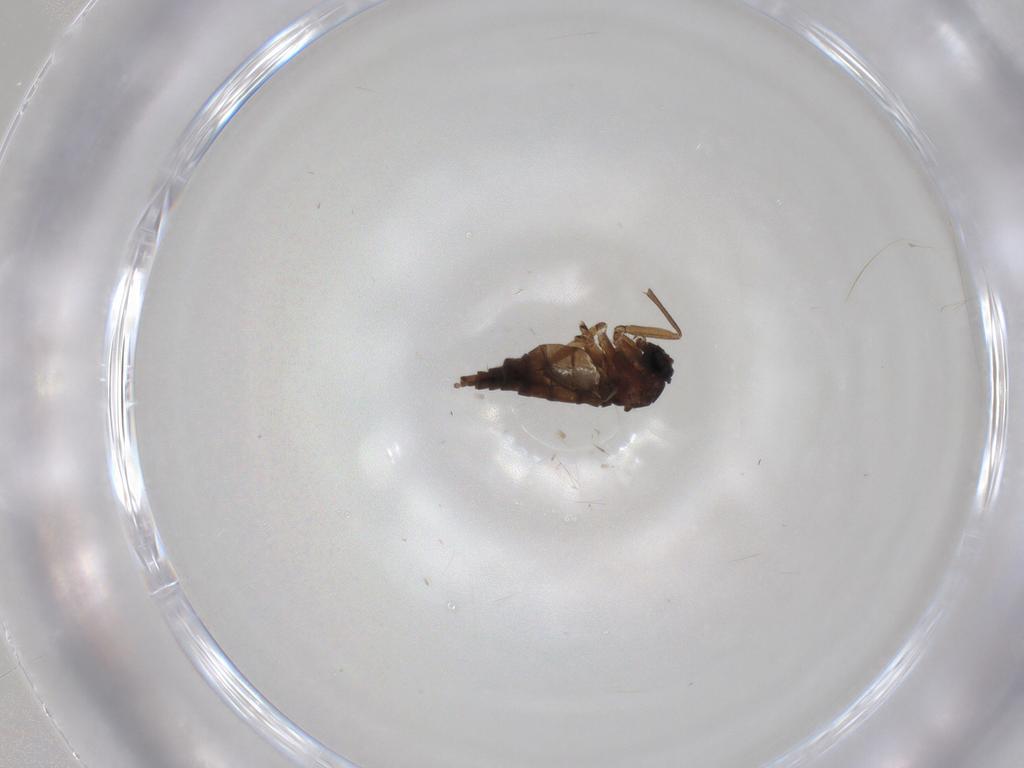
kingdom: Animalia
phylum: Arthropoda
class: Insecta
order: Diptera
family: Sciaridae
